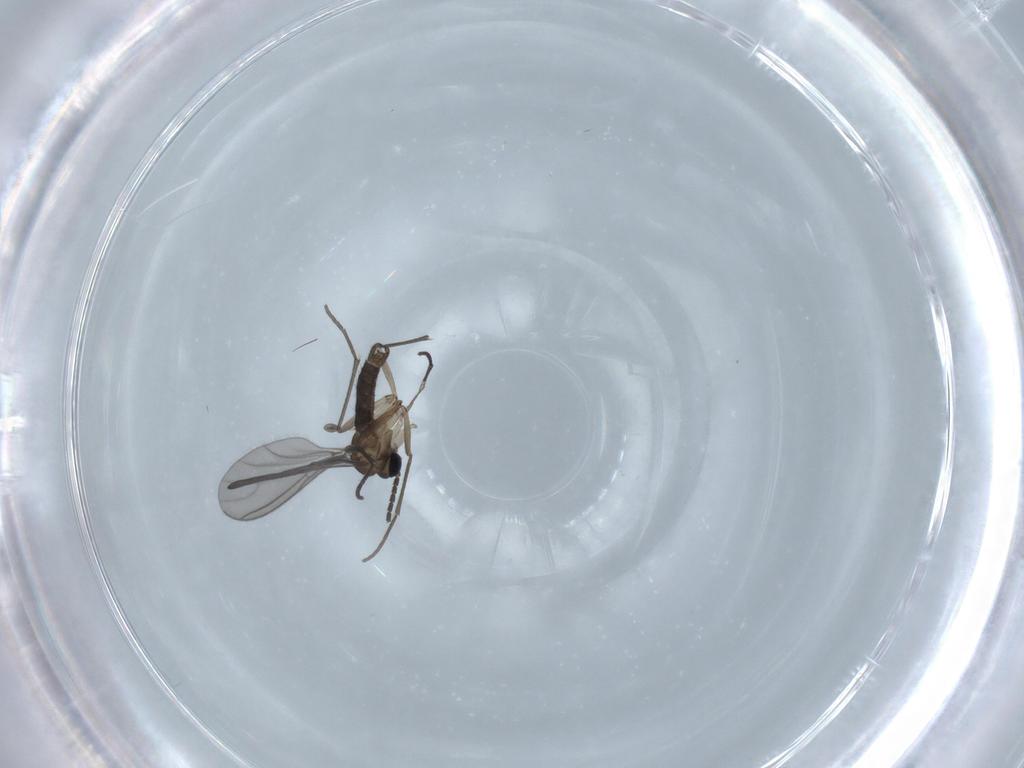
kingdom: Animalia
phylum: Arthropoda
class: Insecta
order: Diptera
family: Sciaridae
